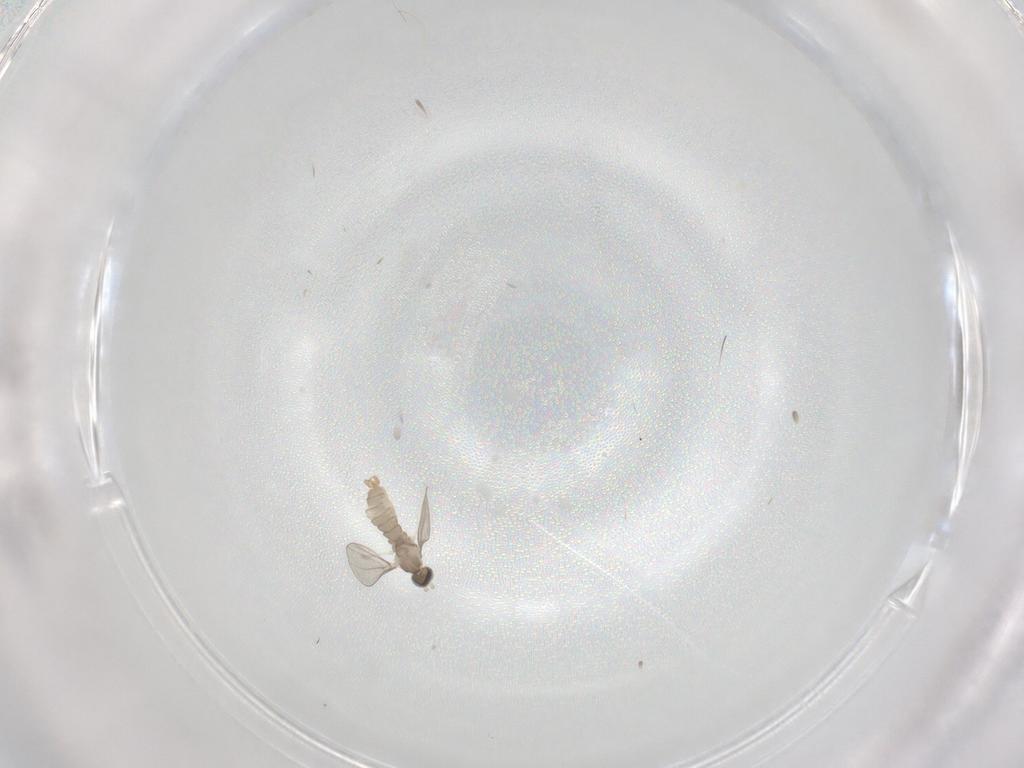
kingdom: Animalia
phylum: Arthropoda
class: Insecta
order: Diptera
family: Cecidomyiidae
